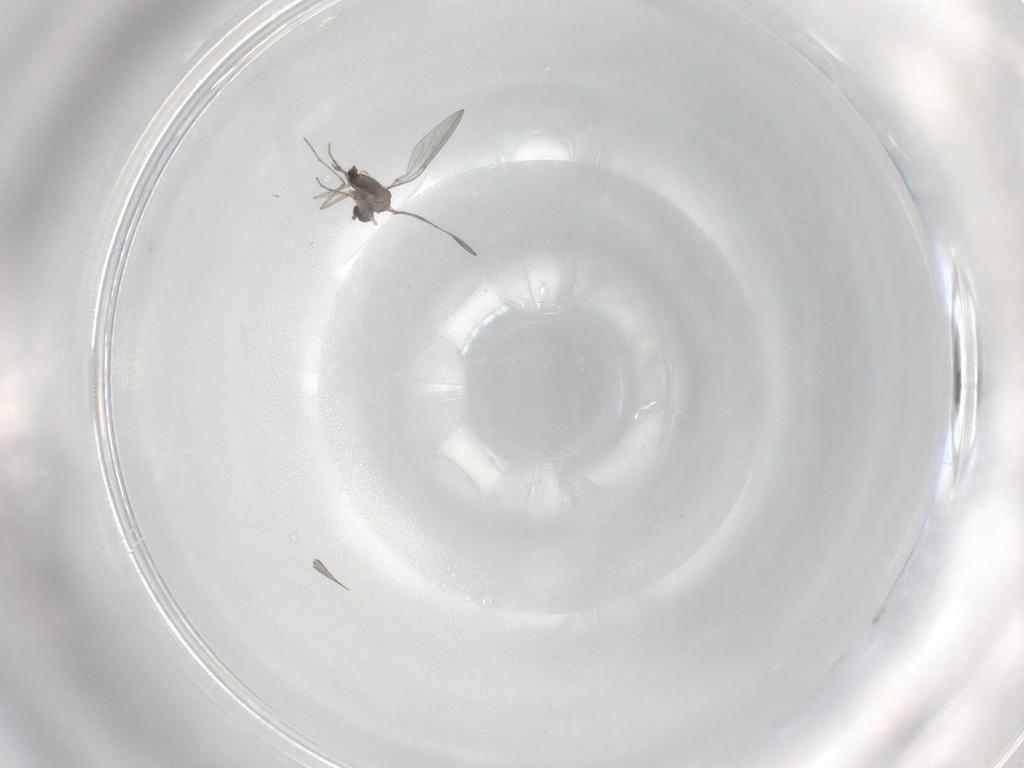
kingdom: Animalia
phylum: Arthropoda
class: Insecta
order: Diptera
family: Cecidomyiidae
